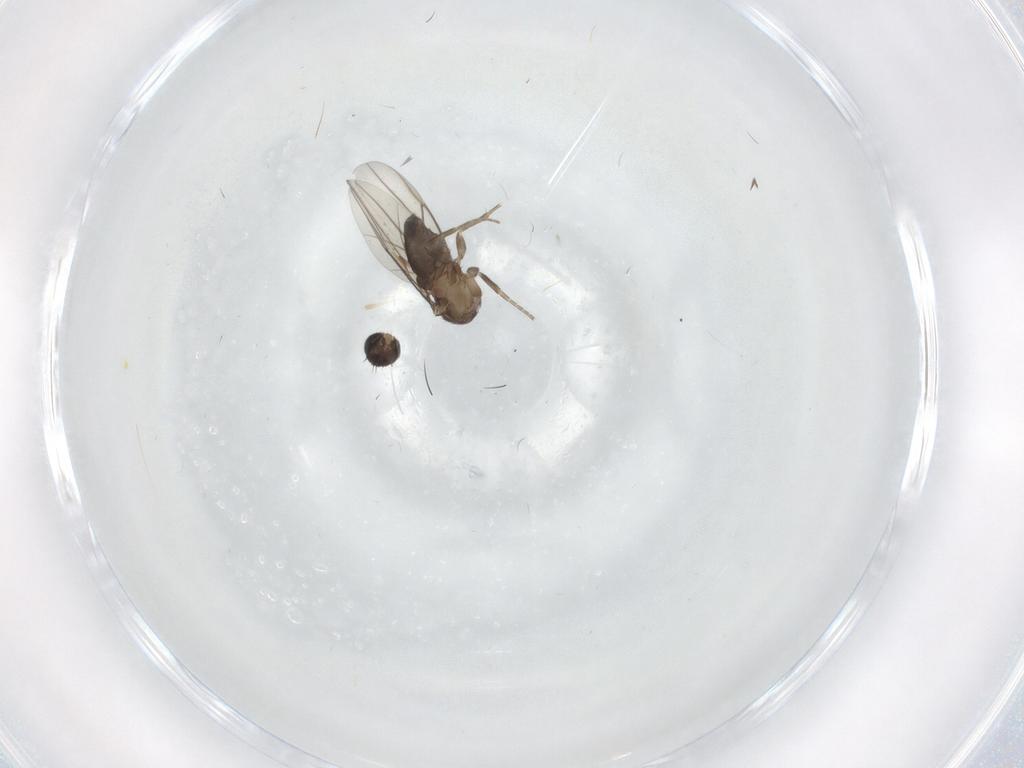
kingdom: Animalia
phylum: Arthropoda
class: Insecta
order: Diptera
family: Phoridae
